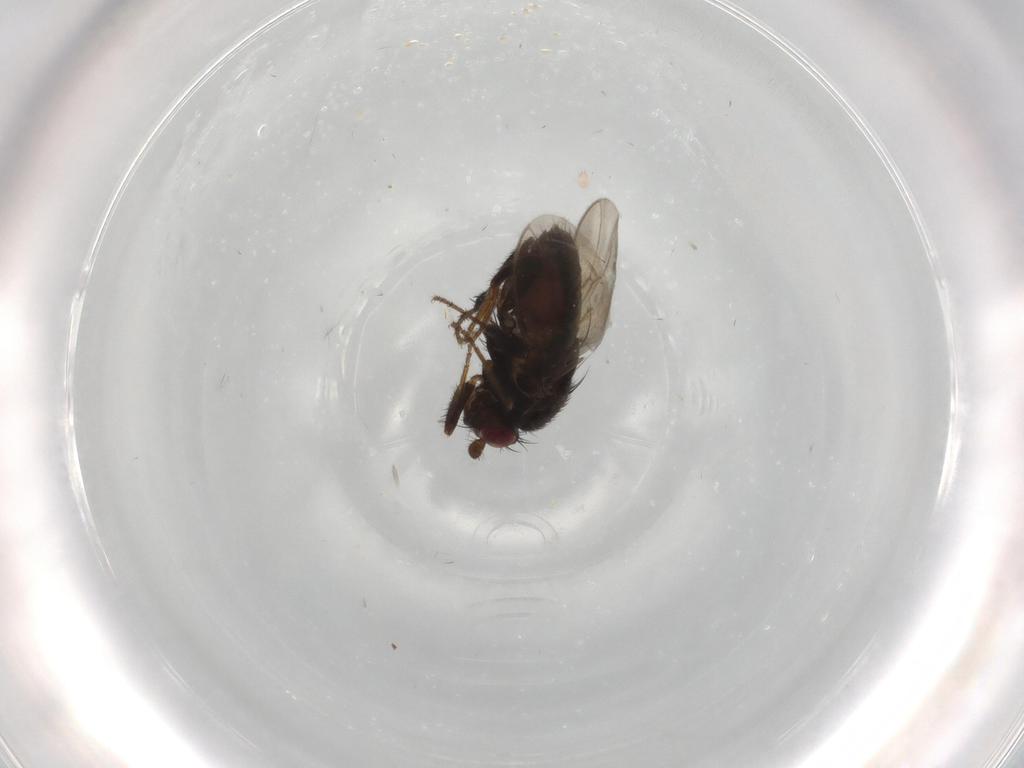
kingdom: Animalia
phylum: Arthropoda
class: Insecta
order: Diptera
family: Sphaeroceridae
